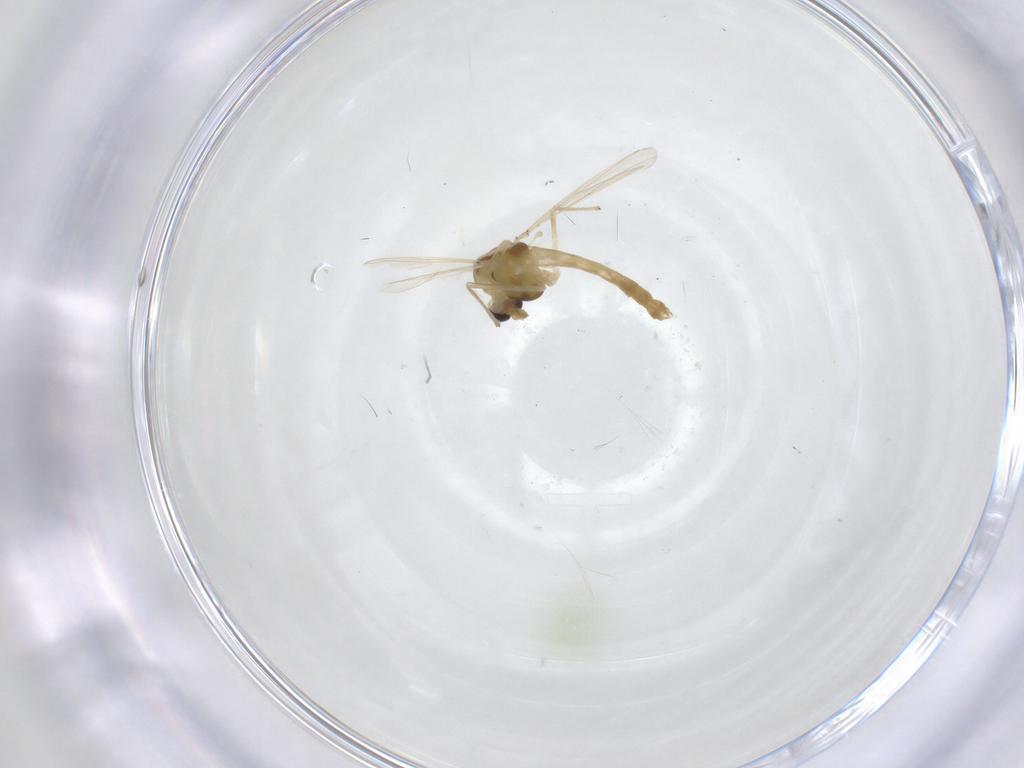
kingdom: Animalia
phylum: Arthropoda
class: Insecta
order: Diptera
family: Chironomidae
